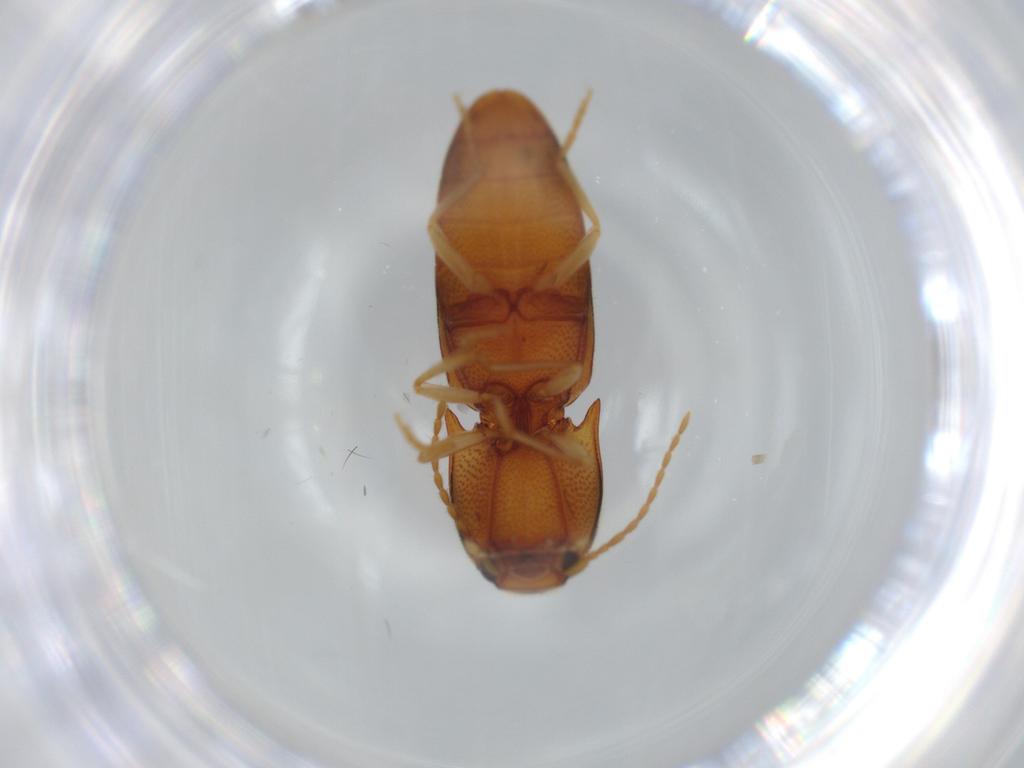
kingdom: Animalia
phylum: Arthropoda
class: Insecta
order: Coleoptera
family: Elateridae
